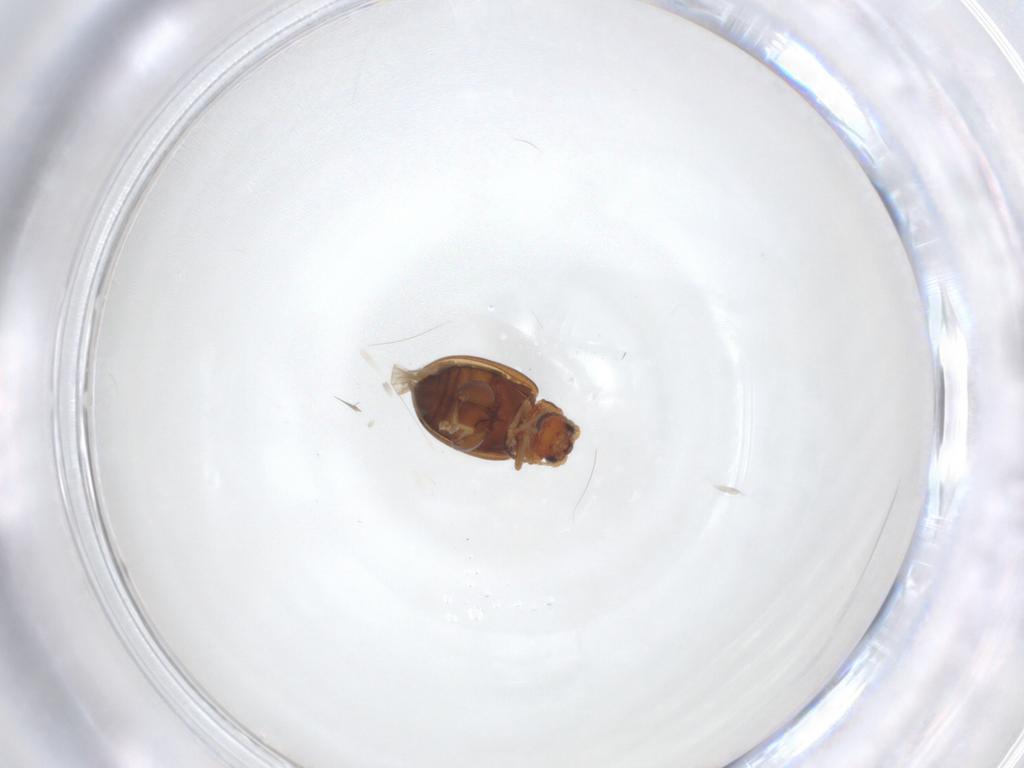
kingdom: Animalia
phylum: Arthropoda
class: Insecta
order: Coleoptera
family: Chrysomelidae
